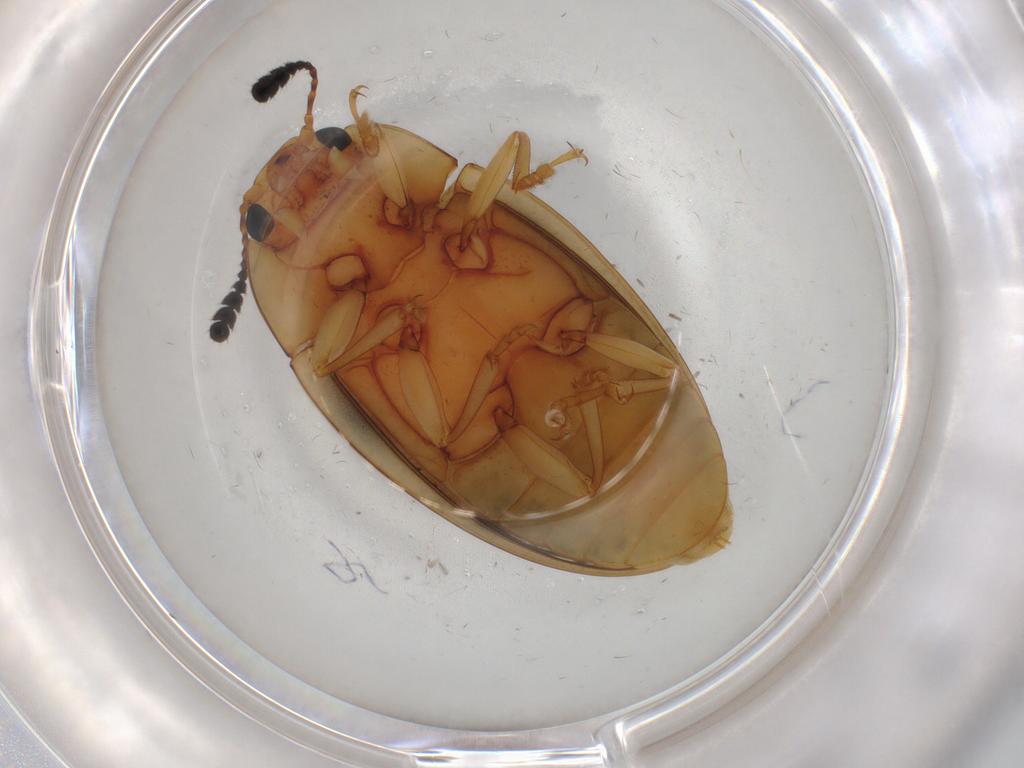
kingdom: Animalia
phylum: Arthropoda
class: Insecta
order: Coleoptera
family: Erotylidae
